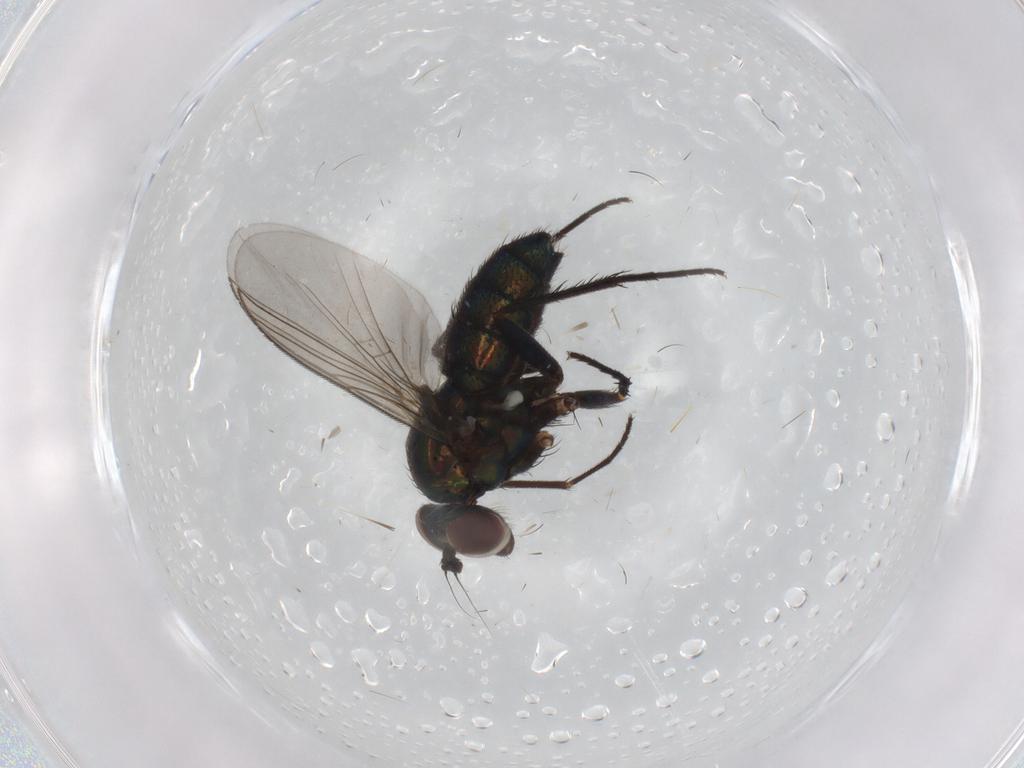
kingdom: Animalia
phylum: Arthropoda
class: Insecta
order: Diptera
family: Dolichopodidae
